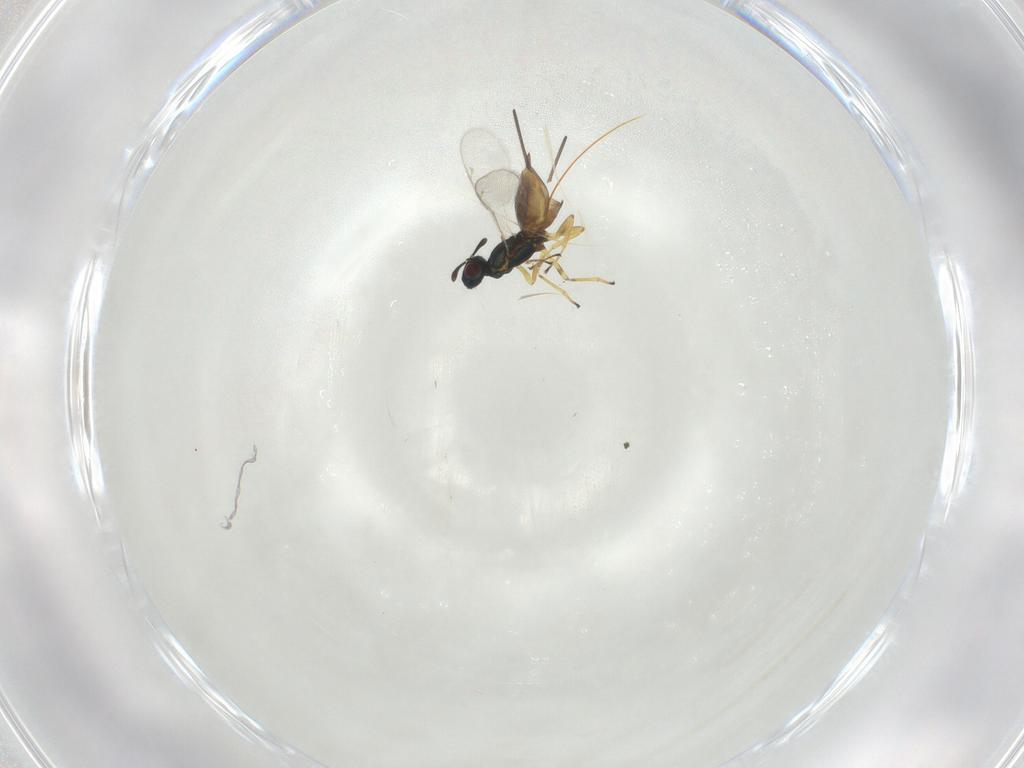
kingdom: Animalia
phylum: Arthropoda
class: Insecta
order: Hymenoptera
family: Eulophidae
